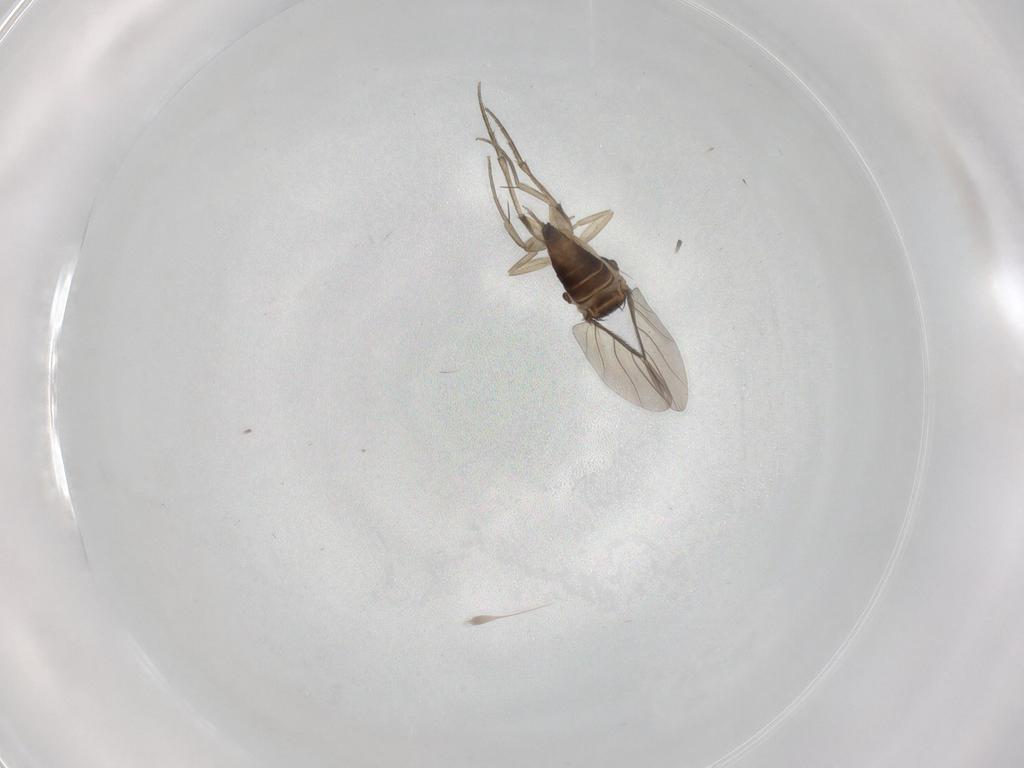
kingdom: Animalia
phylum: Arthropoda
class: Insecta
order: Diptera
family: Phoridae
